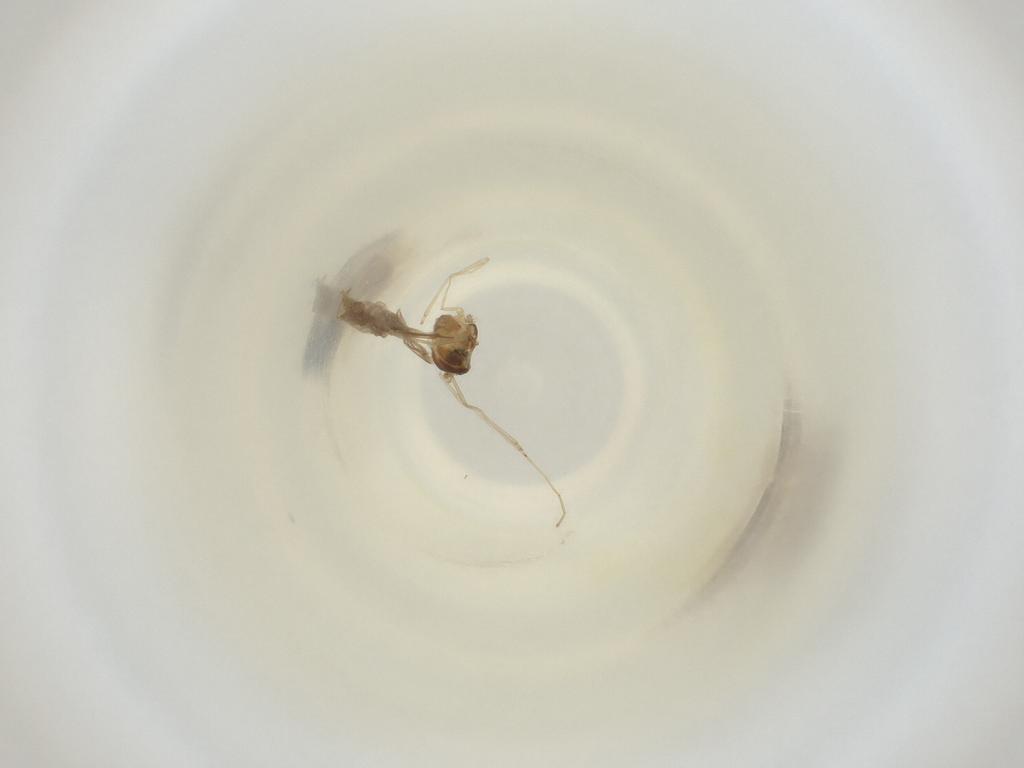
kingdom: Animalia
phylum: Arthropoda
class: Insecta
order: Diptera
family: Cecidomyiidae
